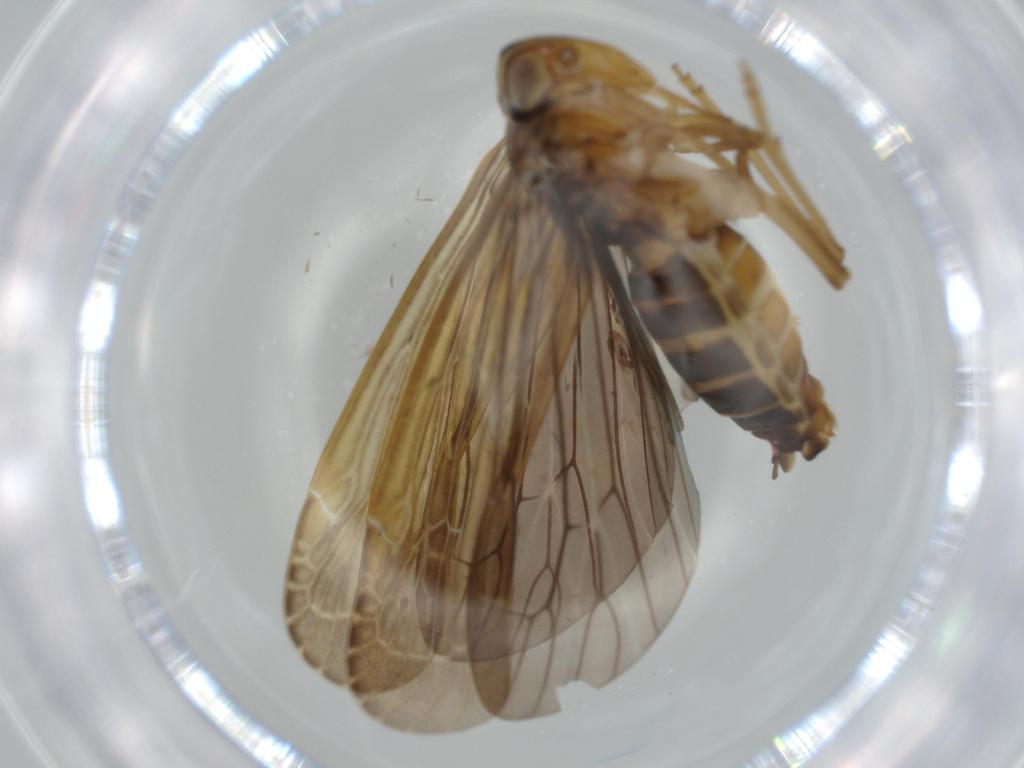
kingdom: Animalia
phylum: Arthropoda
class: Insecta
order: Hemiptera
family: Achilidae
